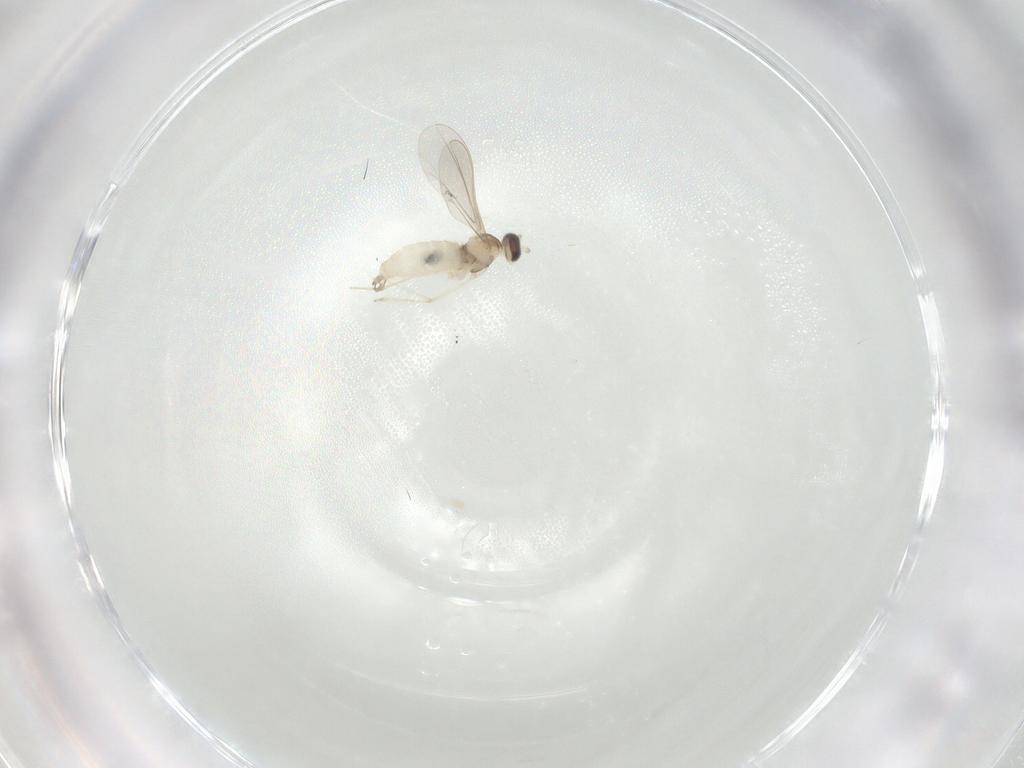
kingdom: Animalia
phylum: Arthropoda
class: Insecta
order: Diptera
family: Cecidomyiidae
